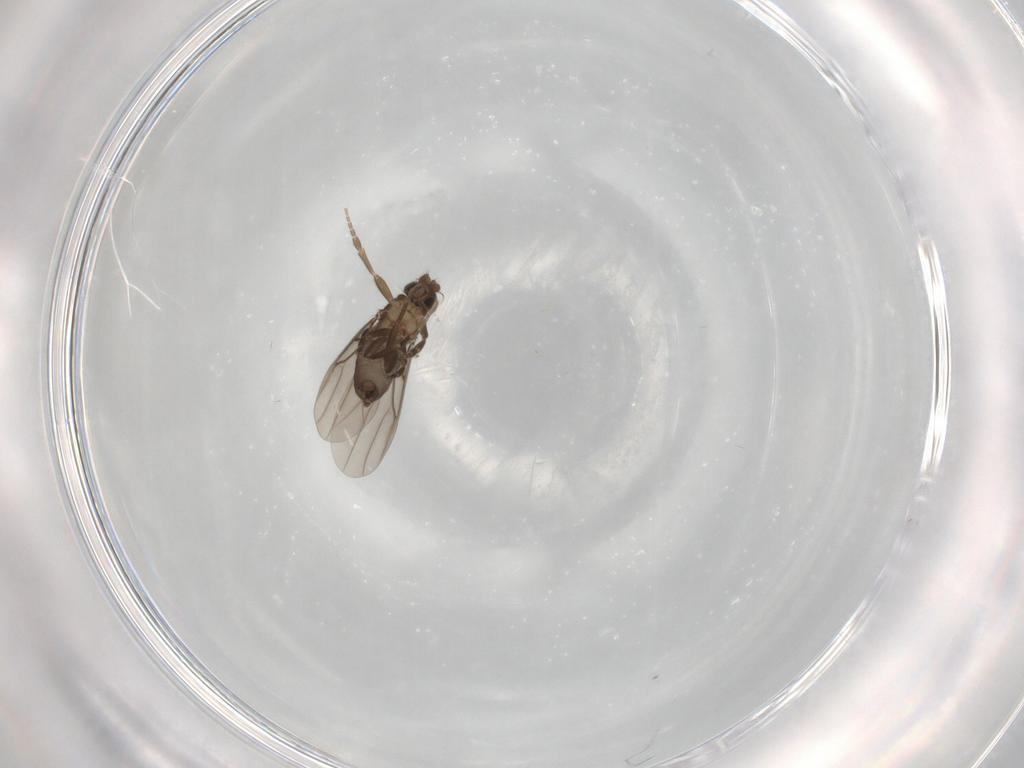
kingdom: Animalia
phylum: Arthropoda
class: Insecta
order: Diptera
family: Phoridae
